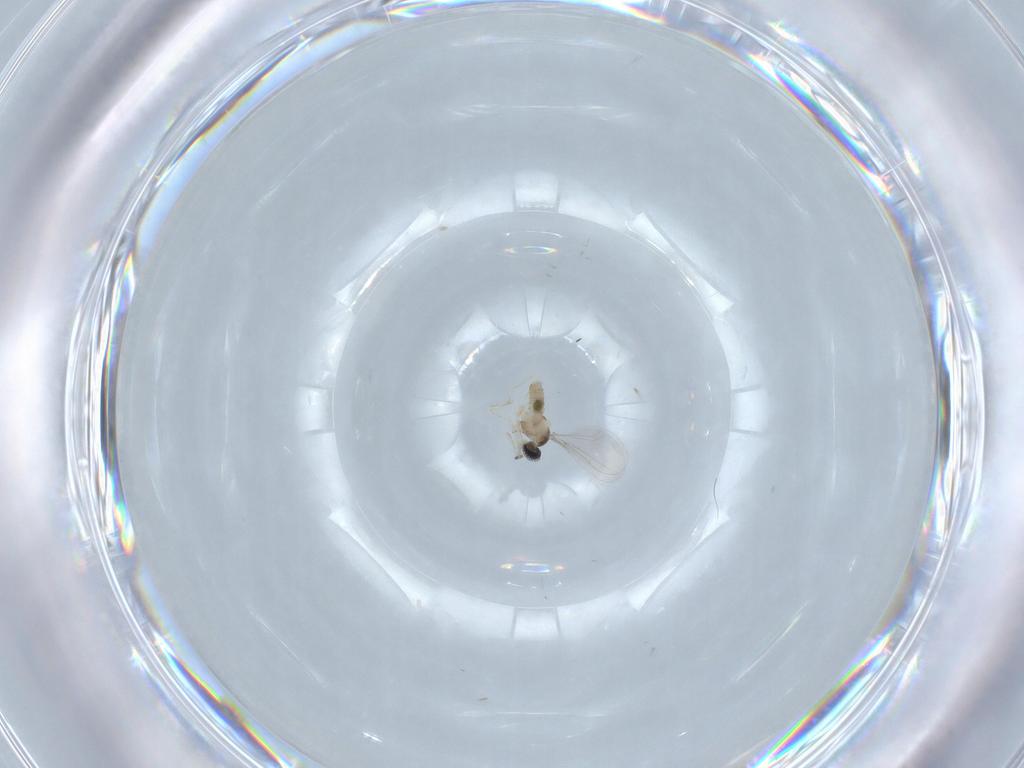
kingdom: Animalia
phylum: Arthropoda
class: Insecta
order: Diptera
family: Cecidomyiidae
